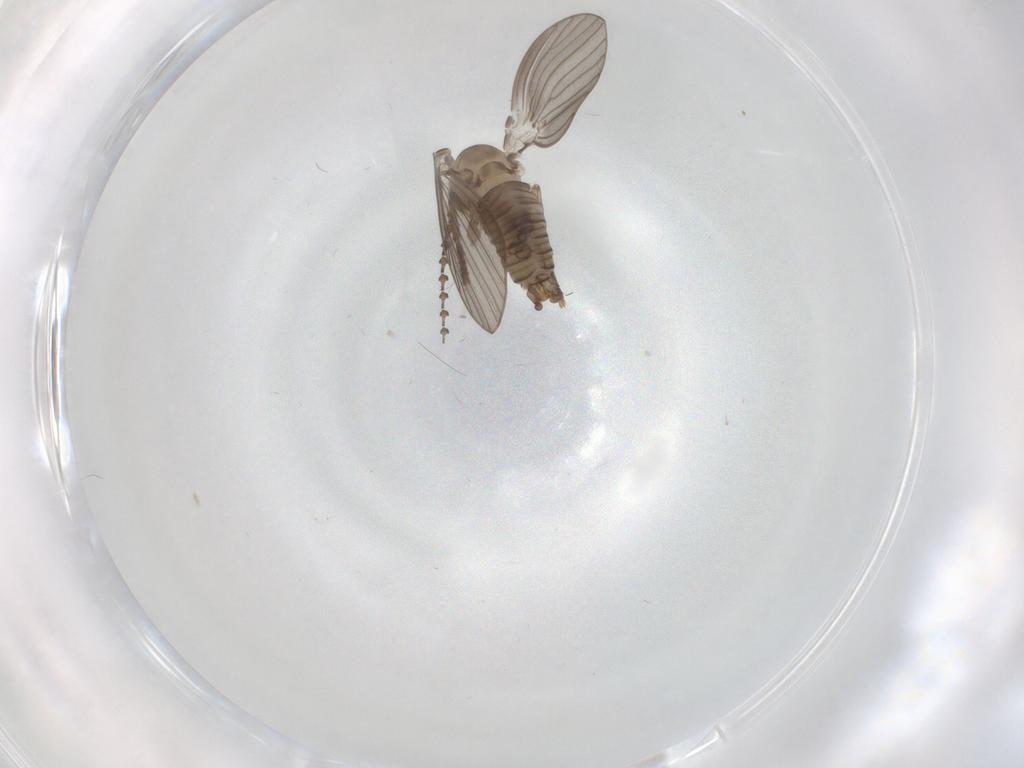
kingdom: Animalia
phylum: Arthropoda
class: Insecta
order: Diptera
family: Psychodidae
